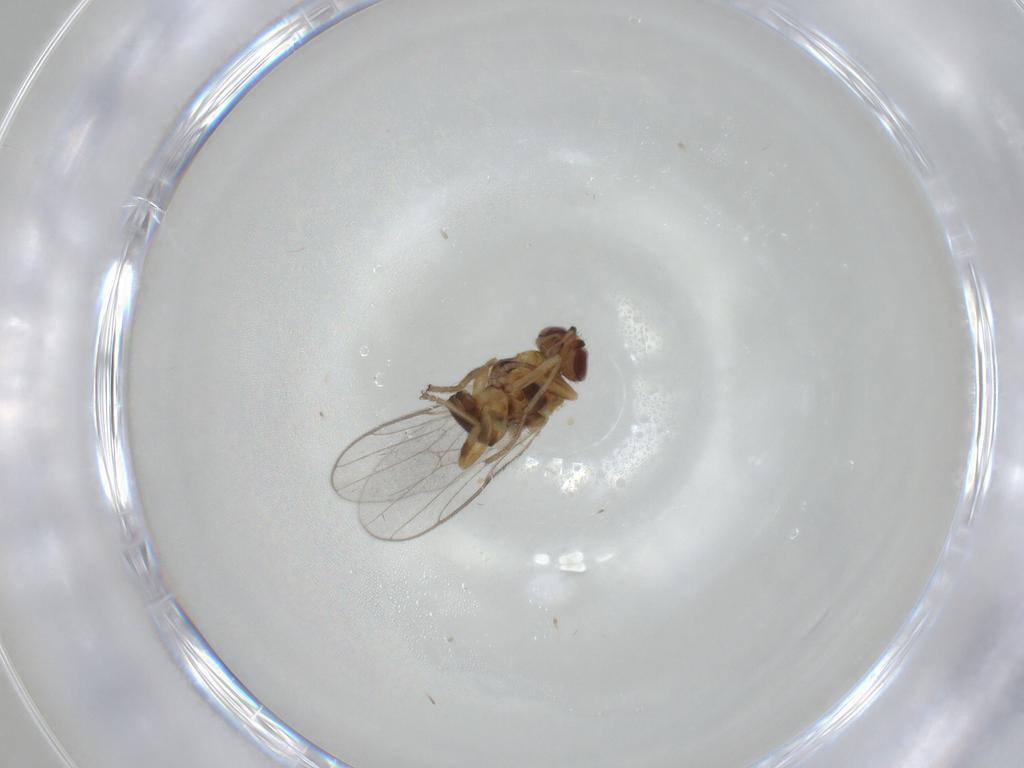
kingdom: Animalia
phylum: Arthropoda
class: Insecta
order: Diptera
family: Chloropidae
